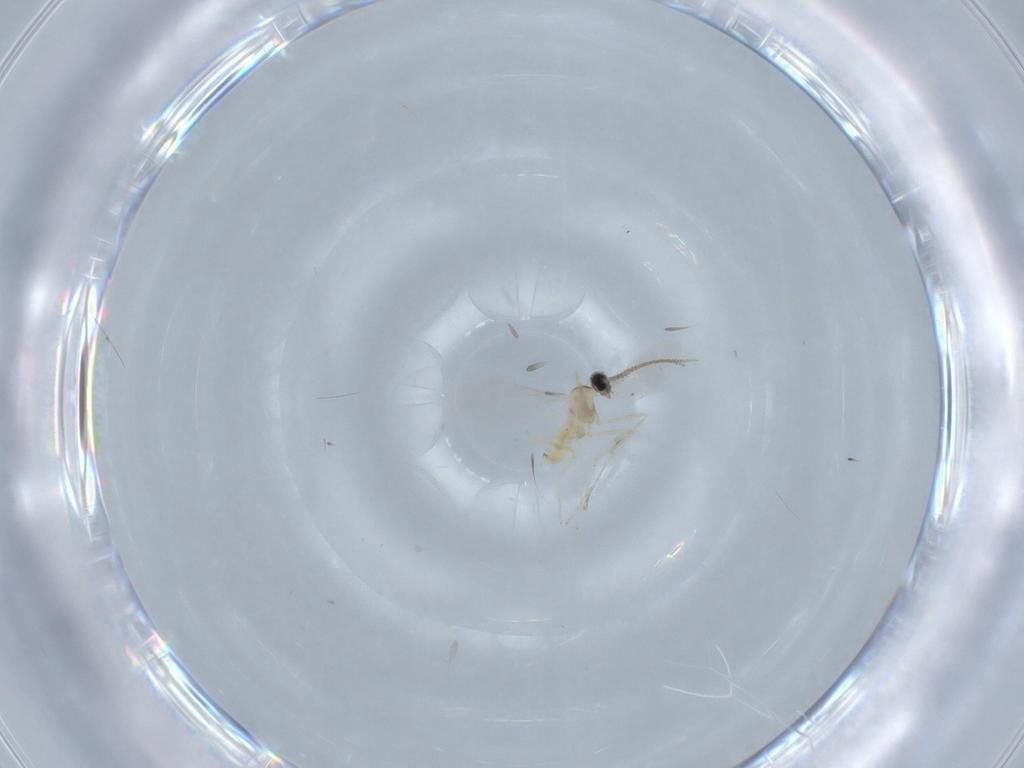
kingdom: Animalia
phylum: Arthropoda
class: Insecta
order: Diptera
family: Cecidomyiidae
